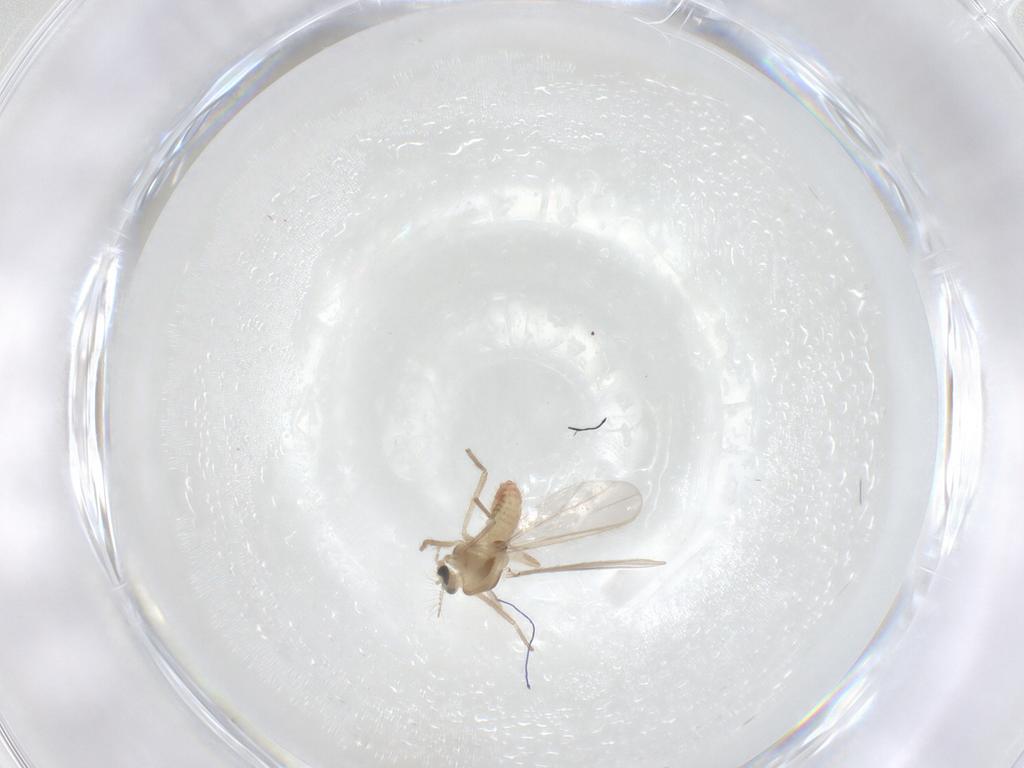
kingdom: Animalia
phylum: Arthropoda
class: Insecta
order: Diptera
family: Chironomidae
